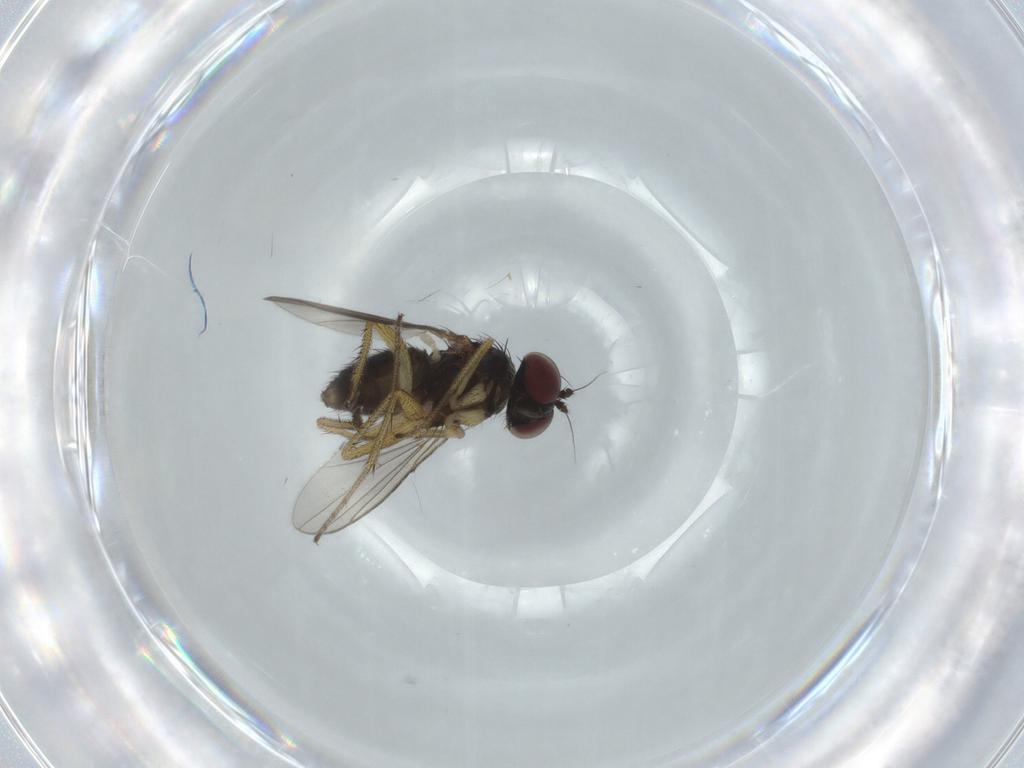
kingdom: Animalia
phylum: Arthropoda
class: Insecta
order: Diptera
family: Dolichopodidae
